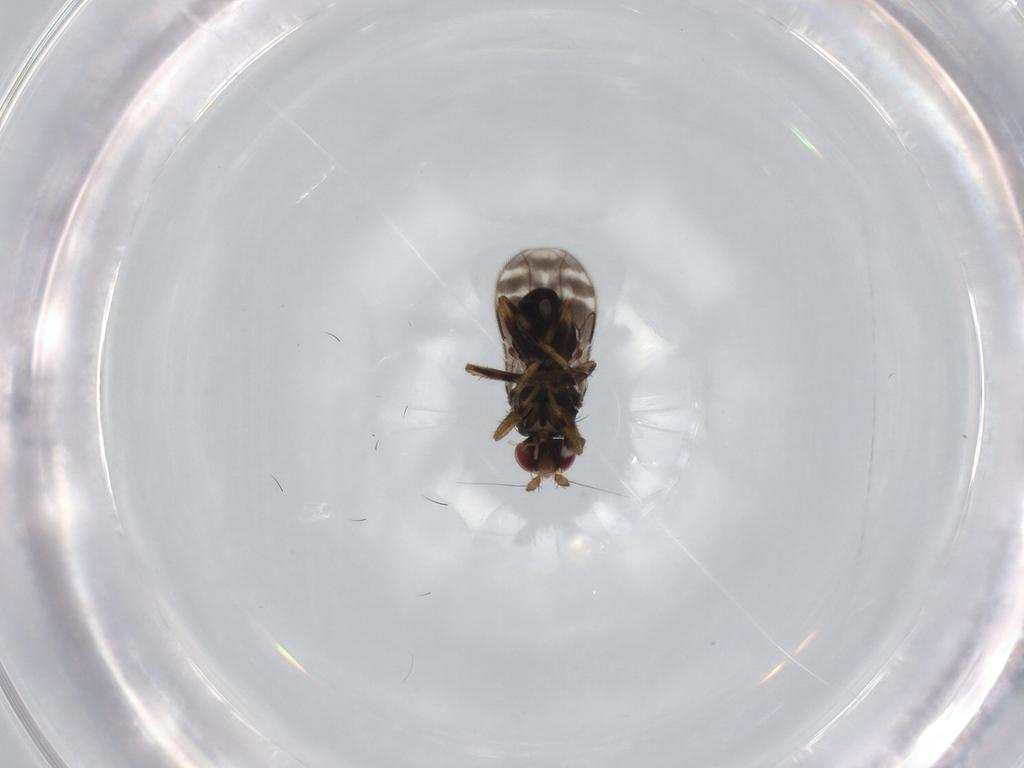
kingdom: Animalia
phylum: Arthropoda
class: Insecta
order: Diptera
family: Sphaeroceridae
